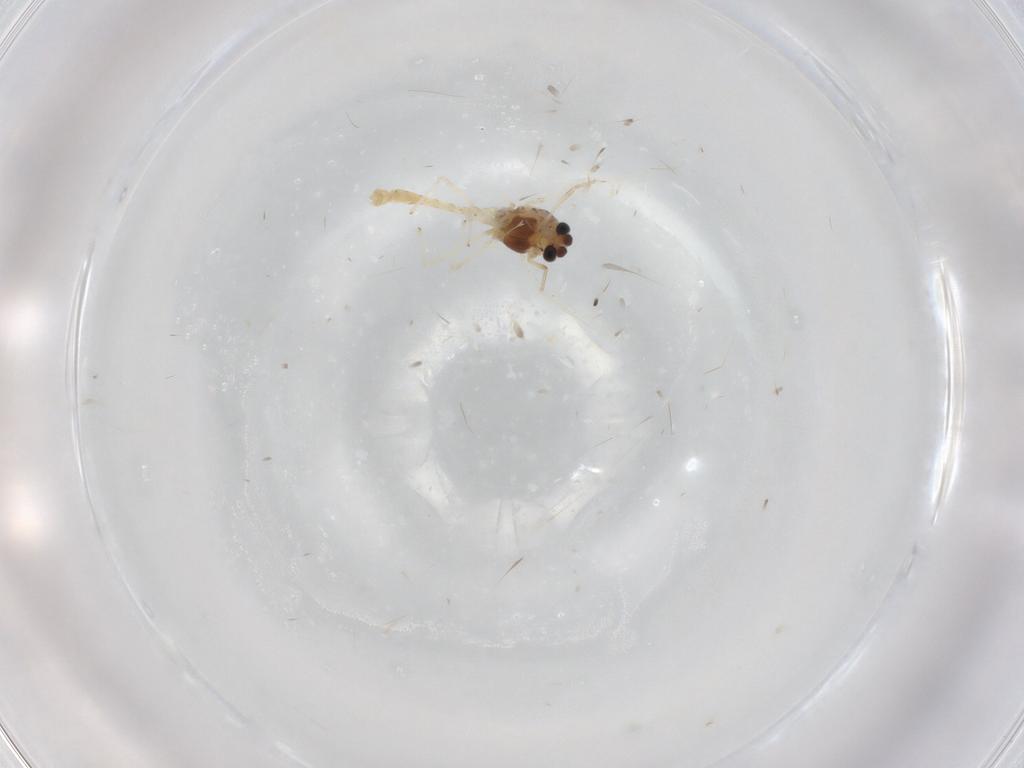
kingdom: Animalia
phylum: Arthropoda
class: Insecta
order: Diptera
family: Chironomidae
